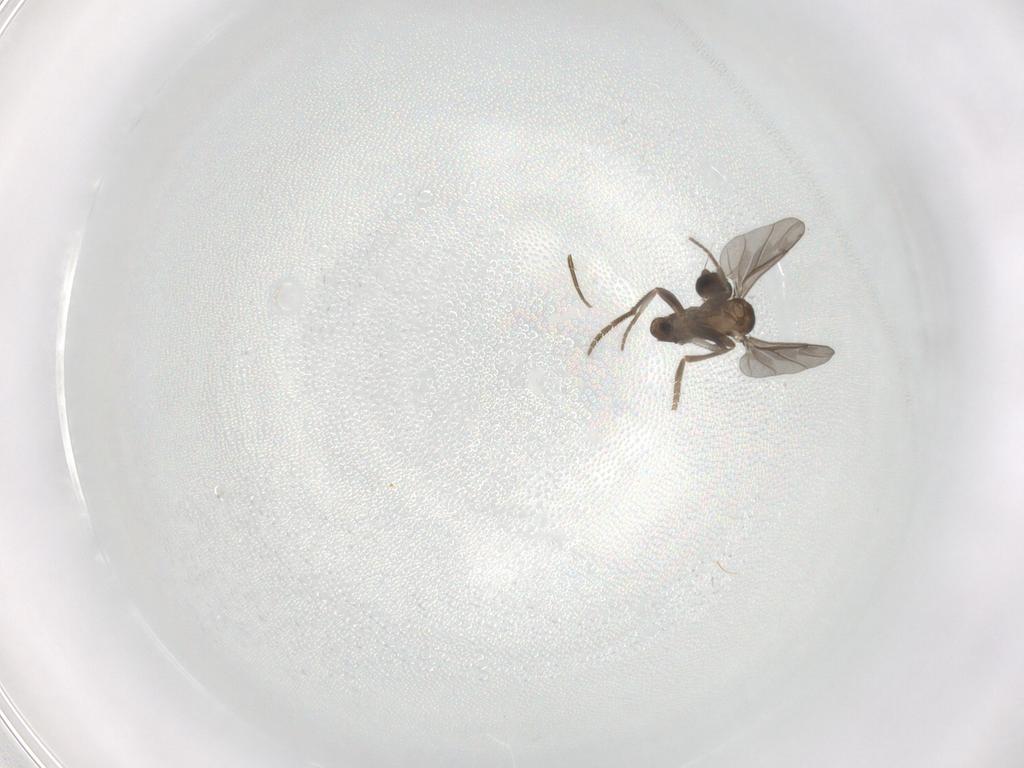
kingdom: Animalia
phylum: Arthropoda
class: Insecta
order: Diptera
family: Phoridae
